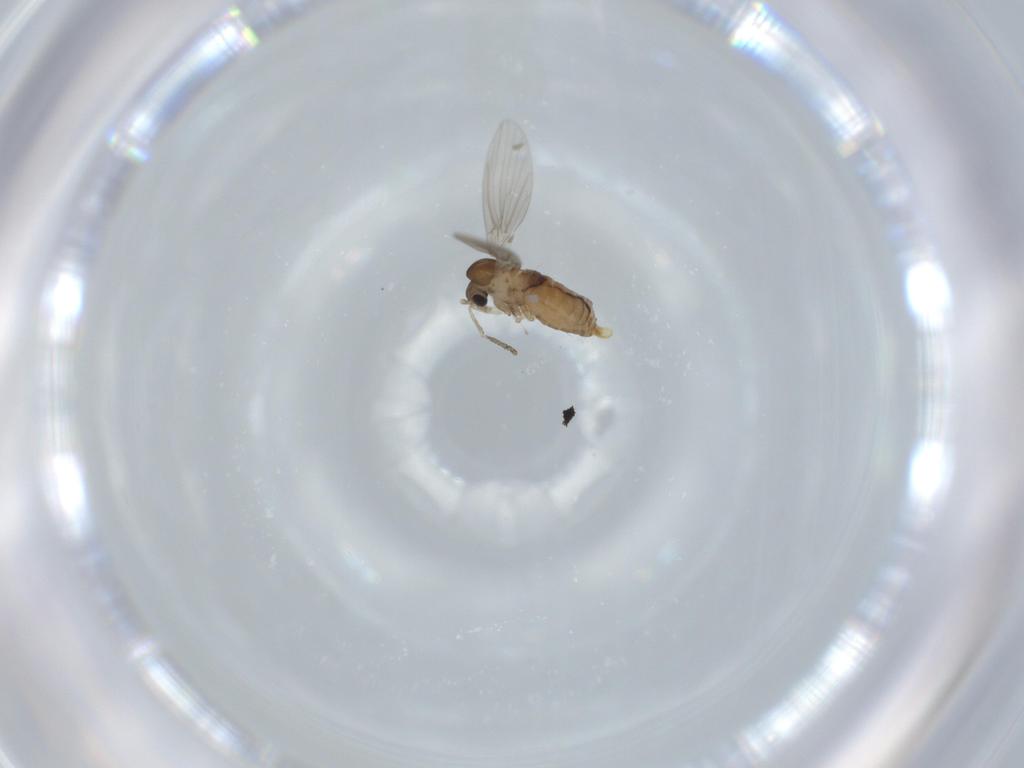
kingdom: Animalia
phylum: Arthropoda
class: Insecta
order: Diptera
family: Psychodidae
